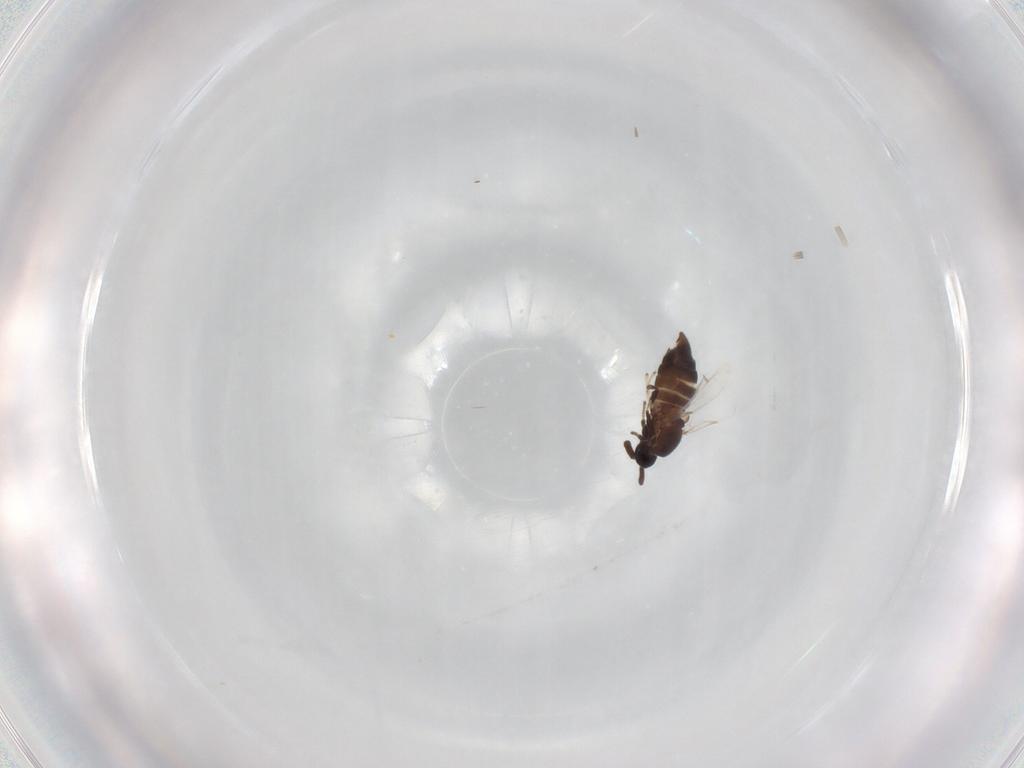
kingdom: Animalia
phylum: Arthropoda
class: Insecta
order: Diptera
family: Scatopsidae
